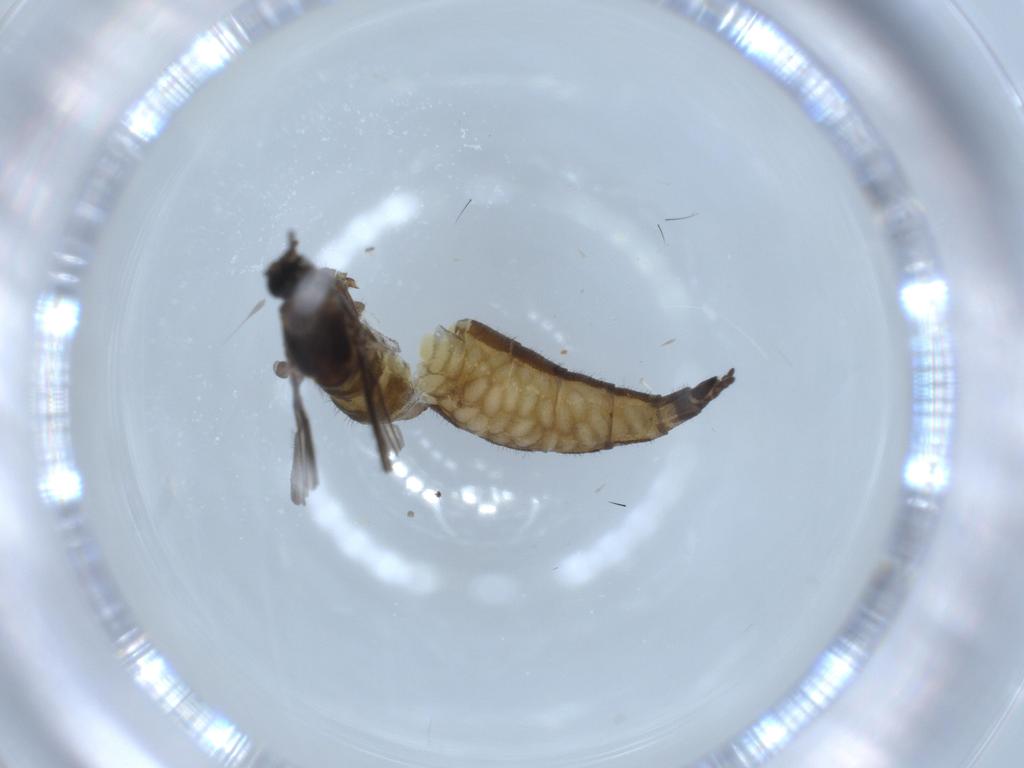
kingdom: Animalia
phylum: Arthropoda
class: Insecta
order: Diptera
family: Sciaridae
